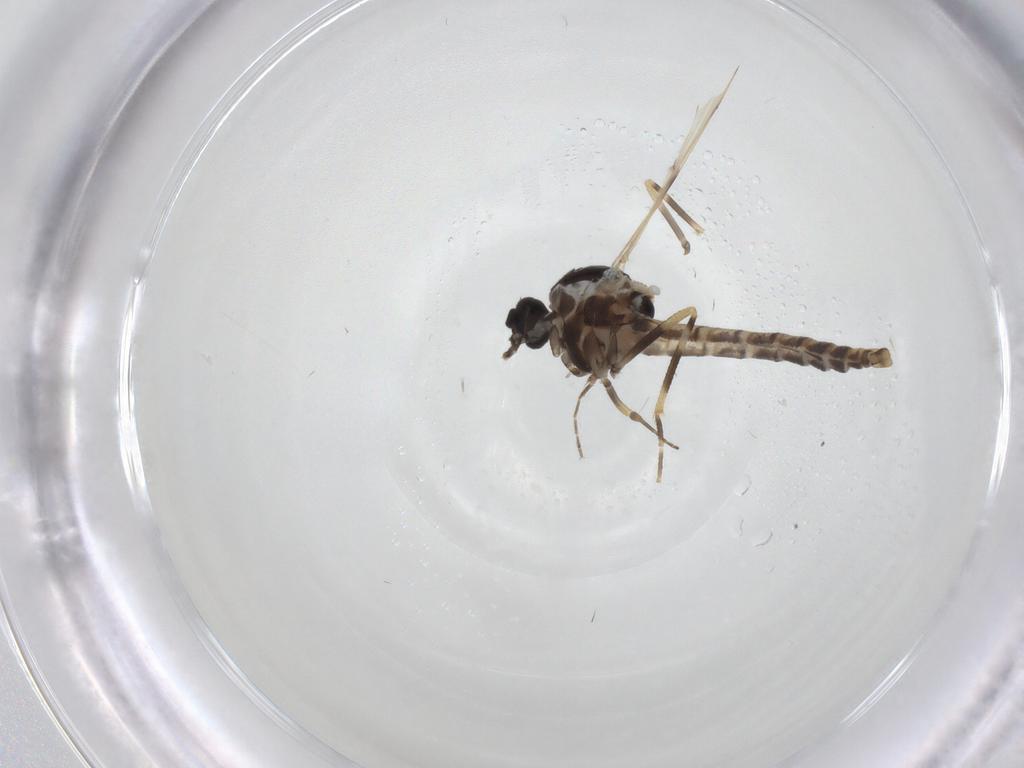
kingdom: Animalia
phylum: Arthropoda
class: Insecta
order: Diptera
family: Ceratopogonidae
